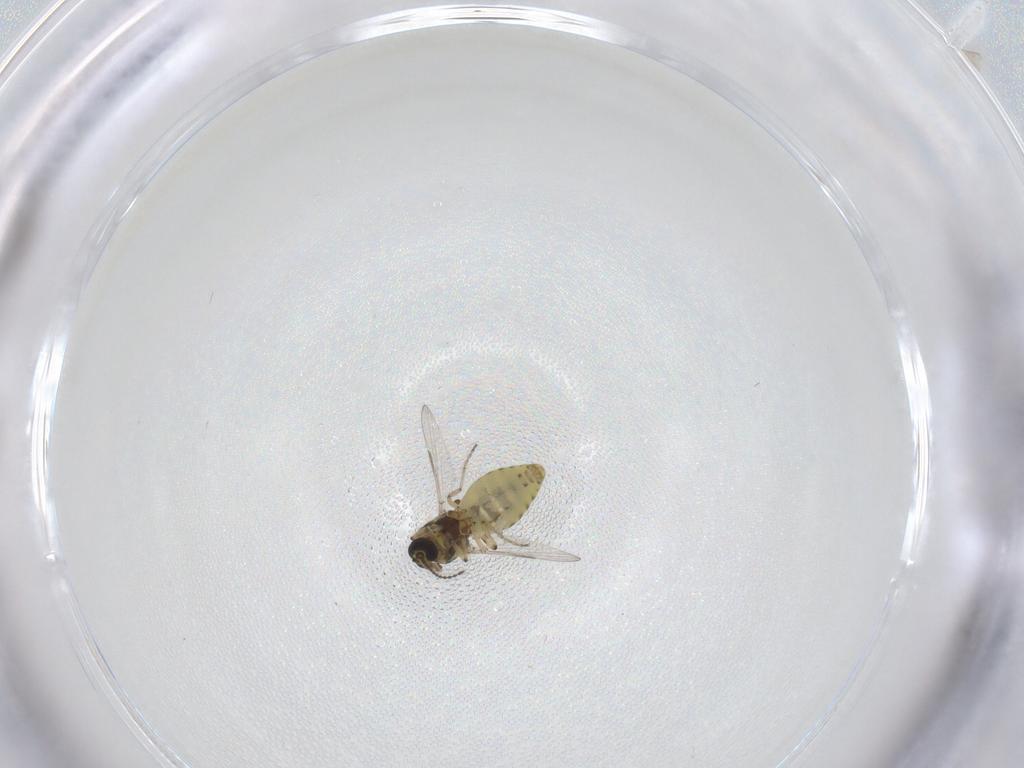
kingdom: Animalia
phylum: Arthropoda
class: Insecta
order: Diptera
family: Ceratopogonidae
